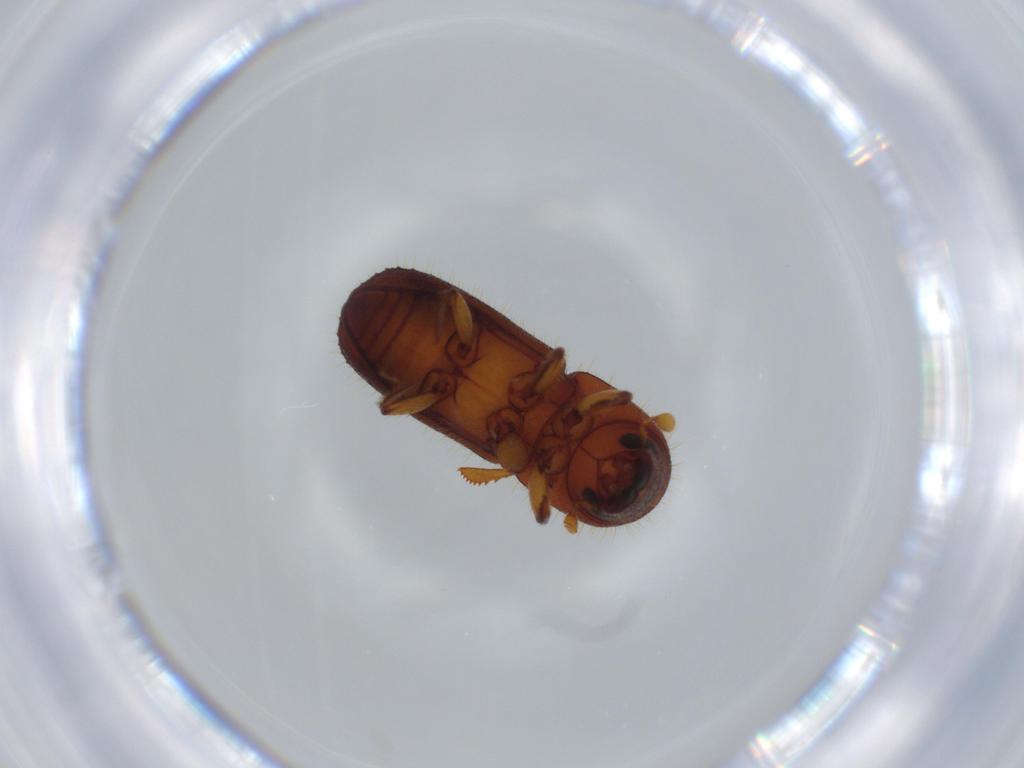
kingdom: Animalia
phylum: Arthropoda
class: Insecta
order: Coleoptera
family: Curculionidae
